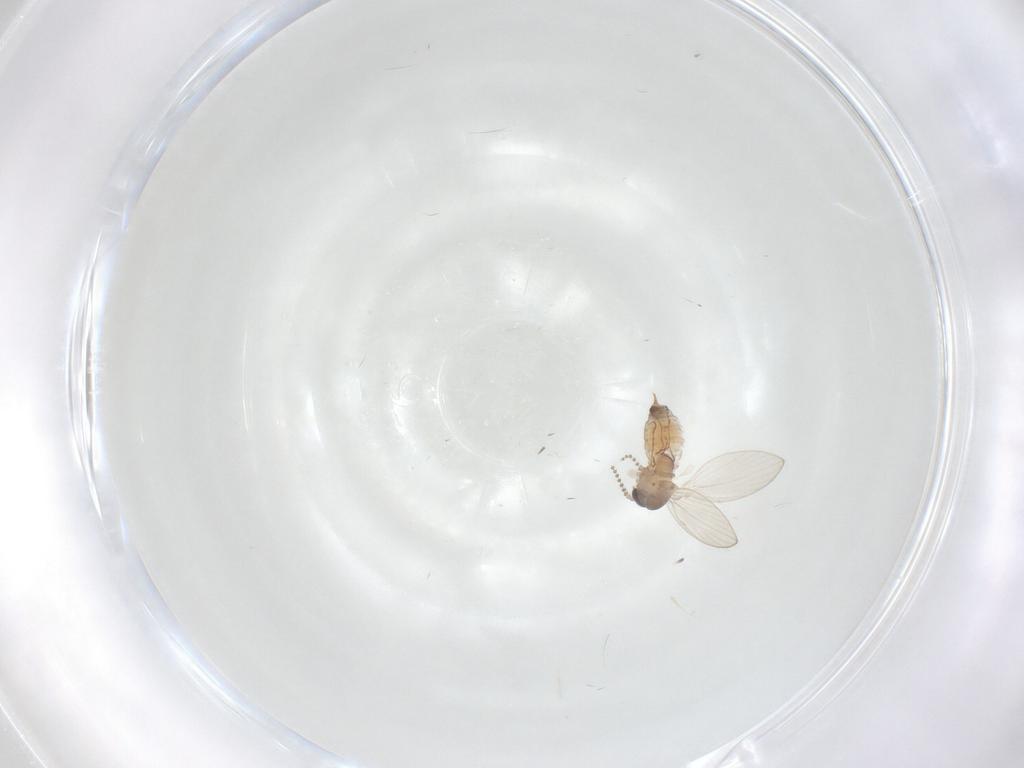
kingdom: Animalia
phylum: Arthropoda
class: Insecta
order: Diptera
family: Psychodidae
